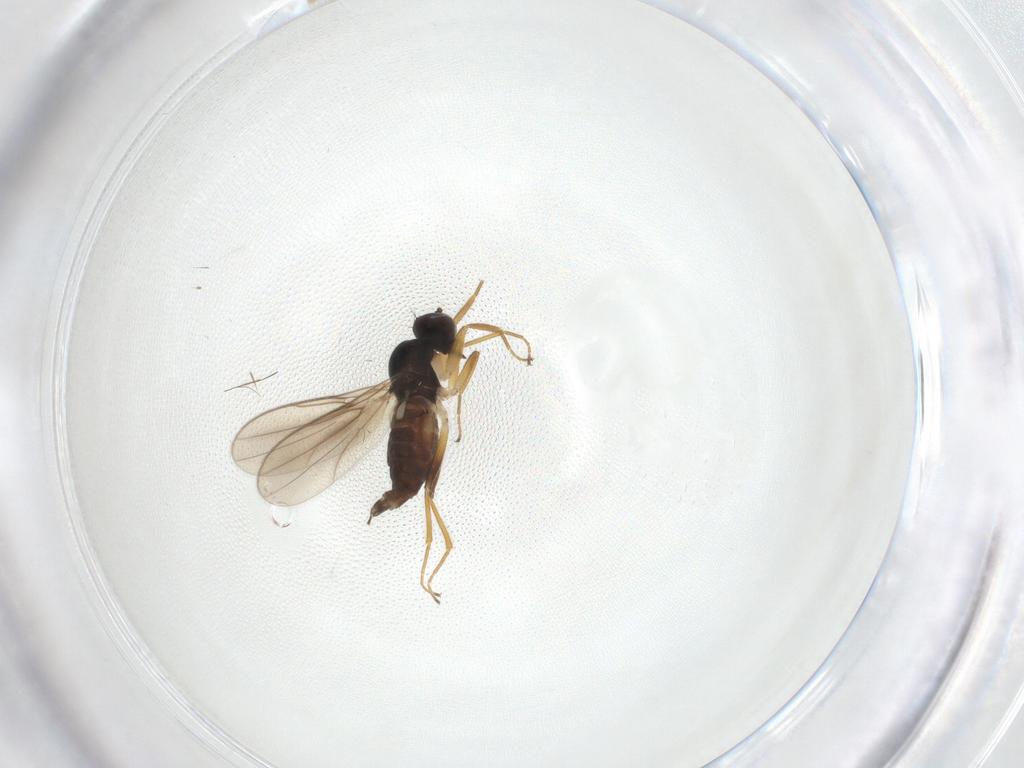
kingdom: Animalia
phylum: Arthropoda
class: Insecta
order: Diptera
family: Hybotidae
